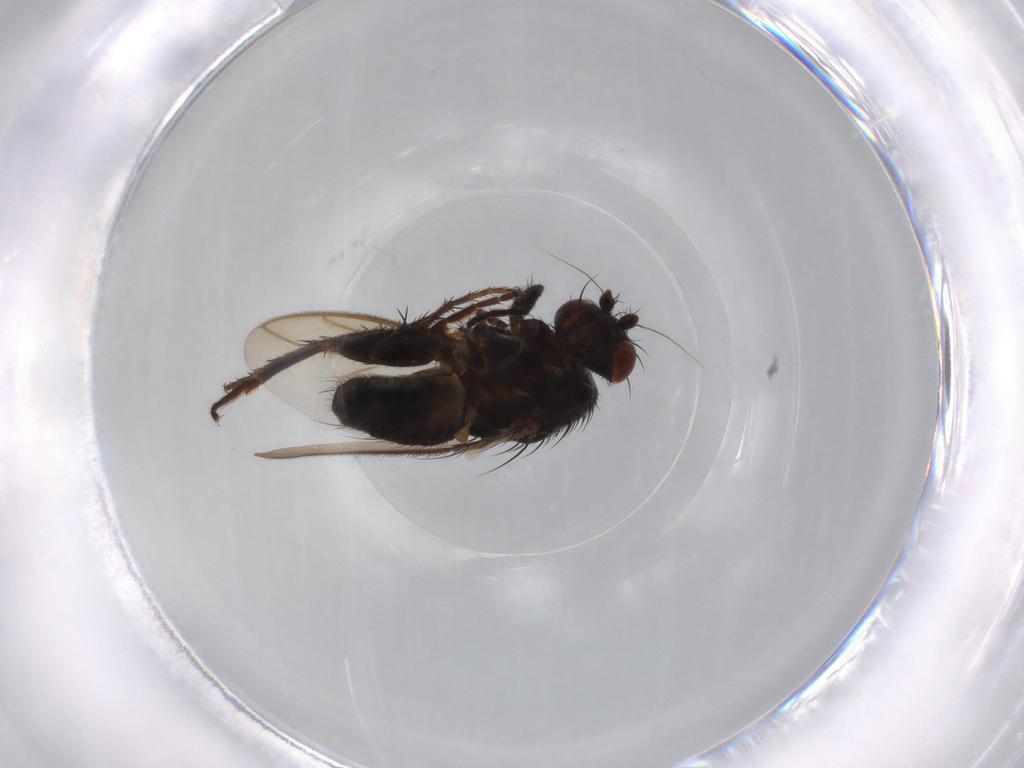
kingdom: Animalia
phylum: Arthropoda
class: Insecta
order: Diptera
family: Sphaeroceridae
